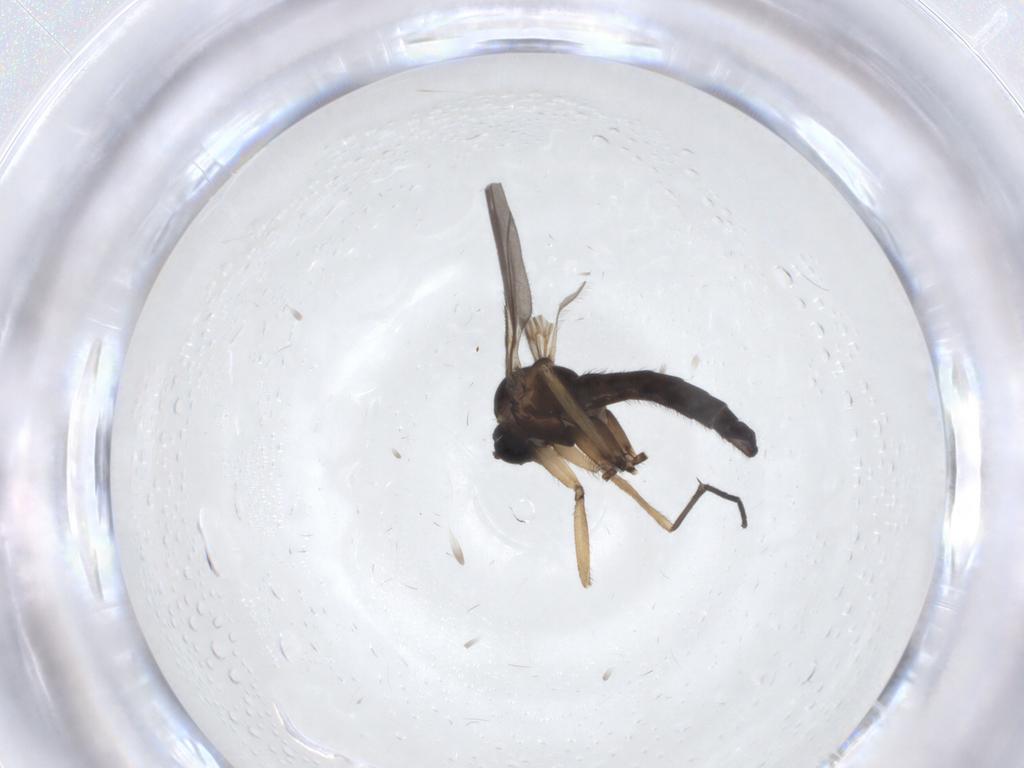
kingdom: Animalia
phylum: Arthropoda
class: Insecta
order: Diptera
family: Sciaridae
